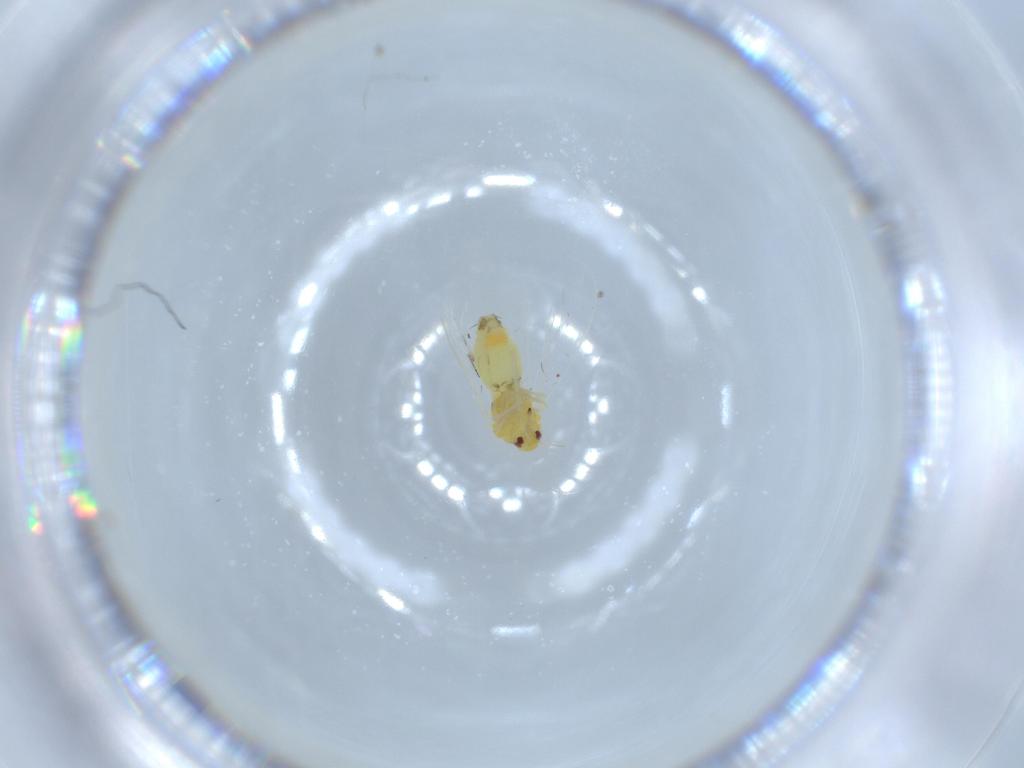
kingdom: Animalia
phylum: Arthropoda
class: Insecta
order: Hemiptera
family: Aleyrodidae
